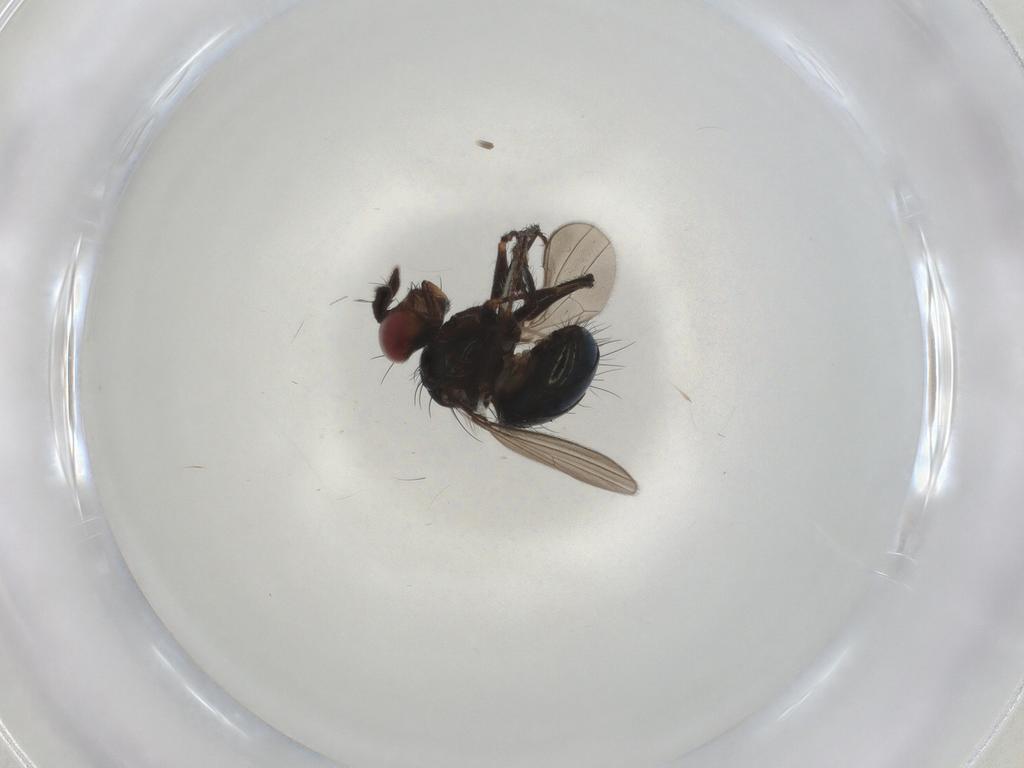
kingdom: Animalia
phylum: Arthropoda
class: Insecta
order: Diptera
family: Ephydridae
